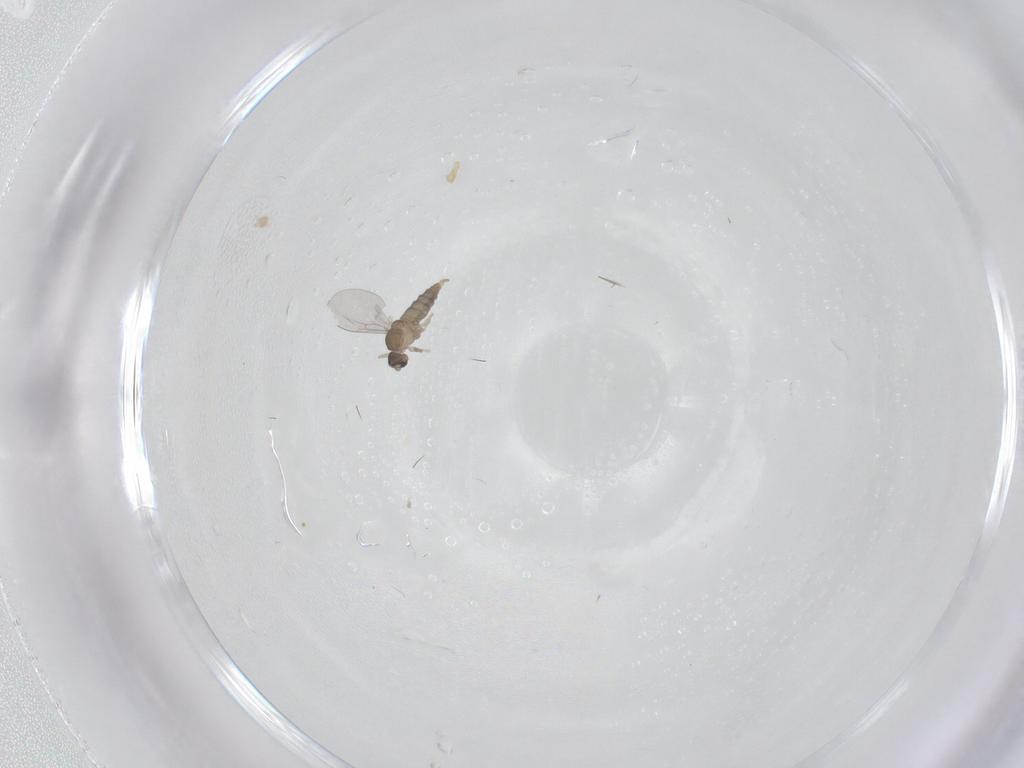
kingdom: Animalia
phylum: Arthropoda
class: Insecta
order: Diptera
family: Cecidomyiidae
